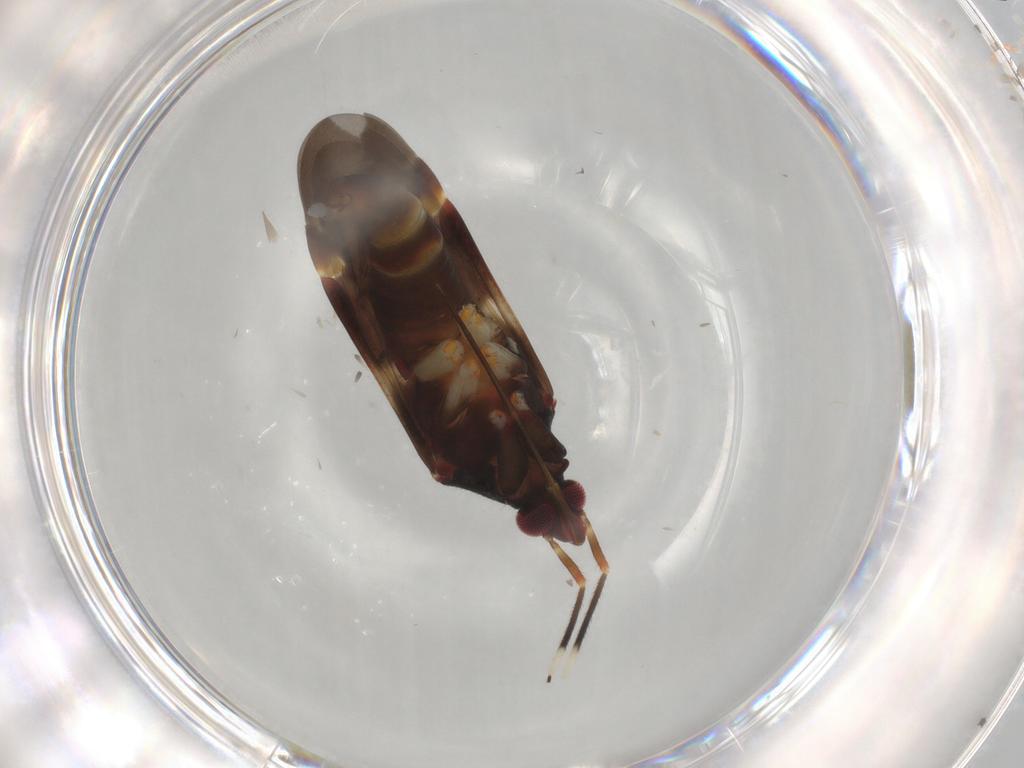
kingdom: Animalia
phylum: Arthropoda
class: Insecta
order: Hemiptera
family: Miridae
